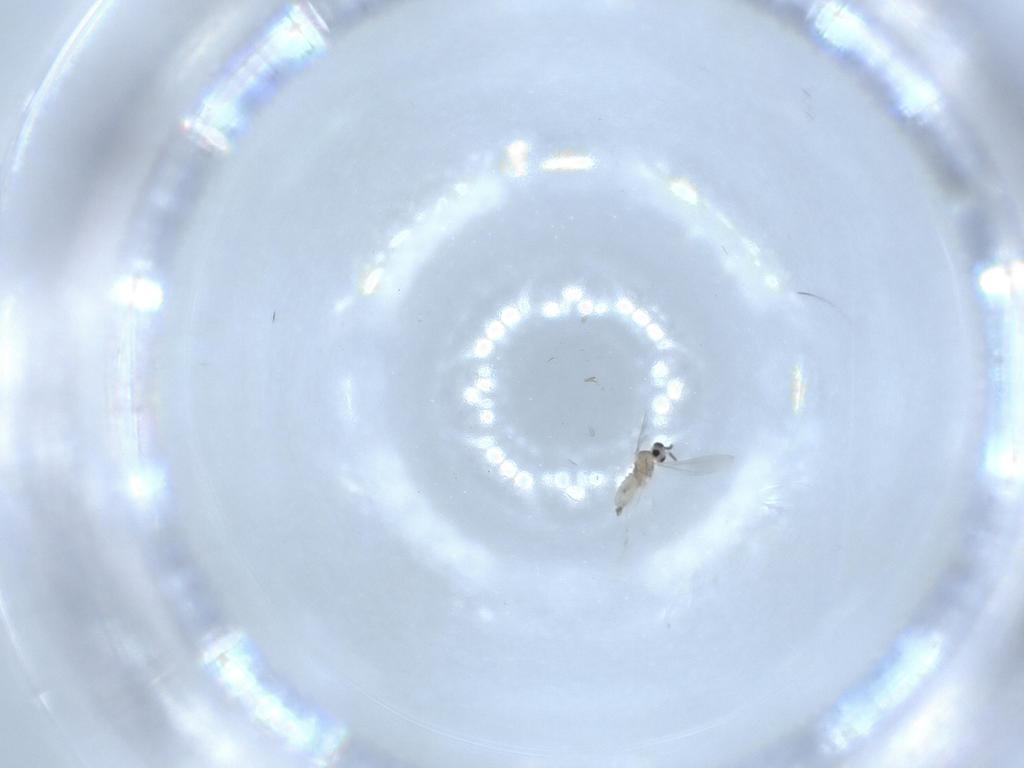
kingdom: Animalia
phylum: Arthropoda
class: Insecta
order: Diptera
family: Cecidomyiidae
